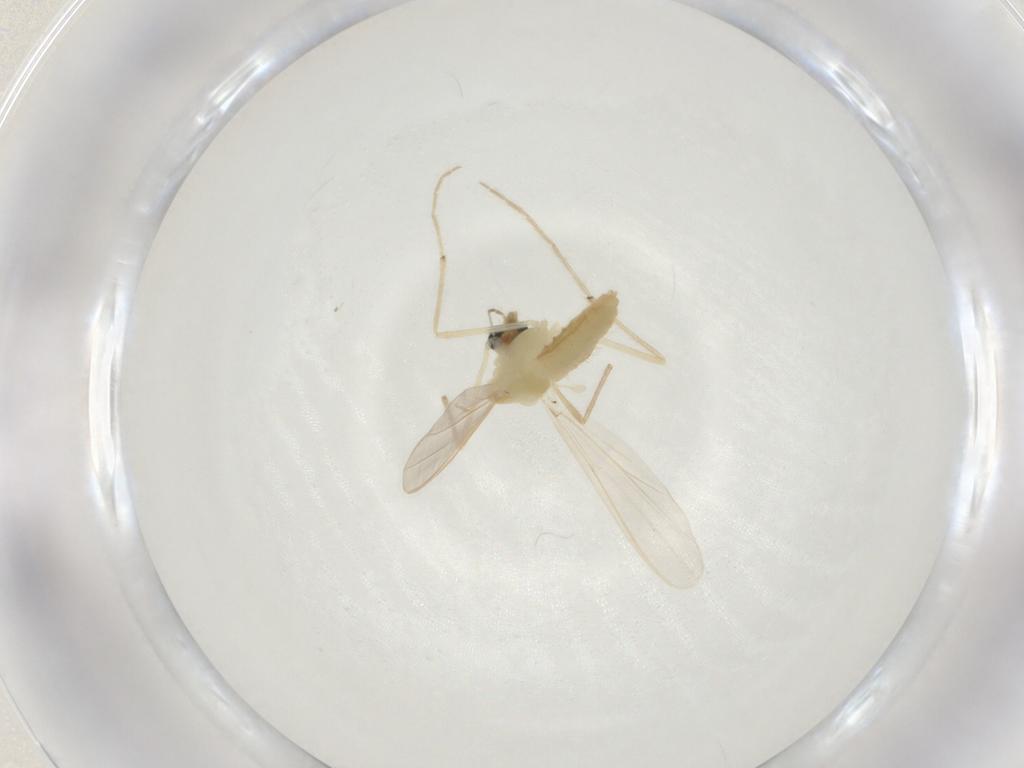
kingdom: Animalia
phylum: Arthropoda
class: Insecta
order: Diptera
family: Chironomidae
